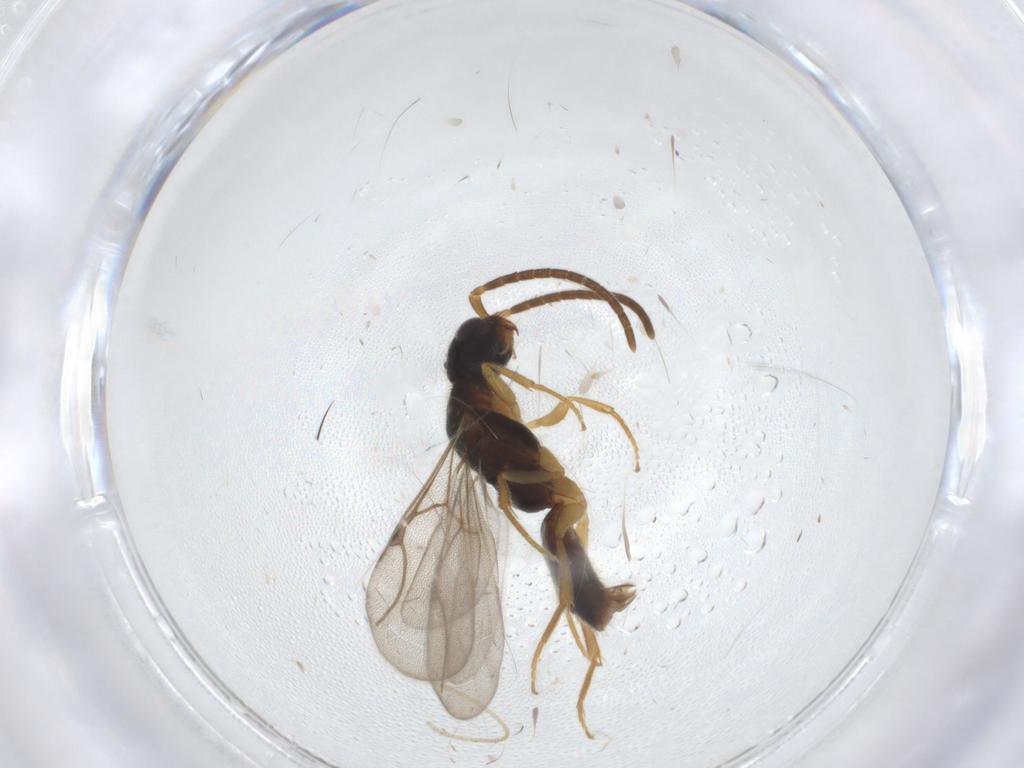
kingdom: Animalia
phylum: Arthropoda
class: Insecta
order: Hymenoptera
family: Bethylidae
